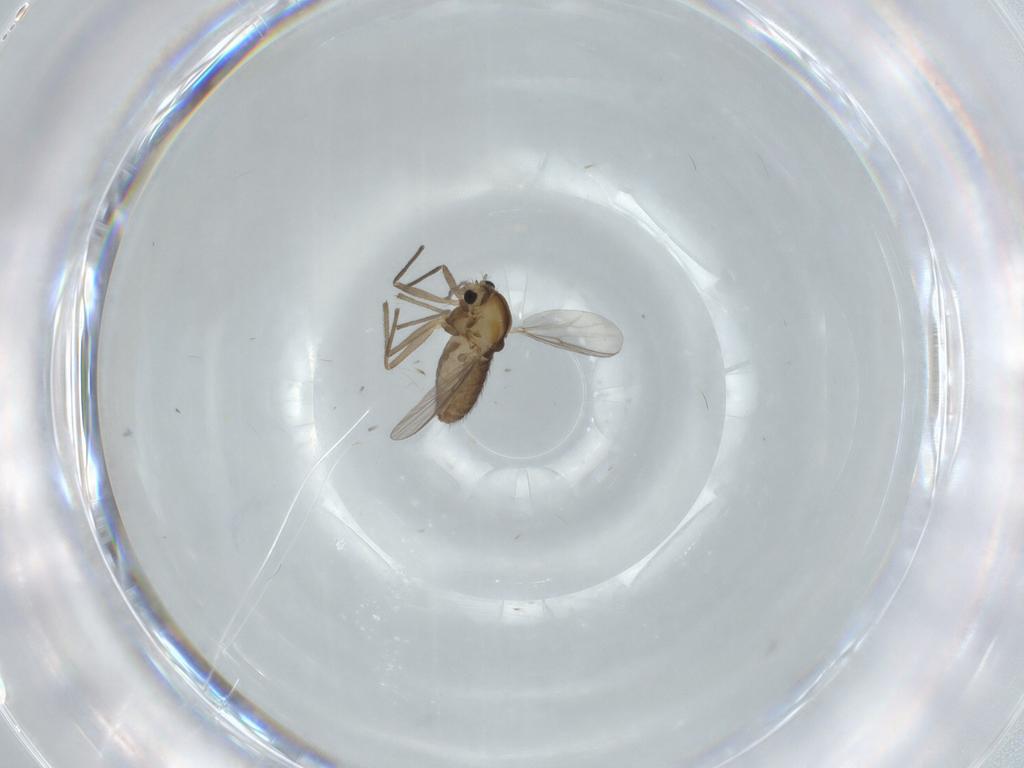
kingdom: Animalia
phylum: Arthropoda
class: Insecta
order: Diptera
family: Chironomidae
